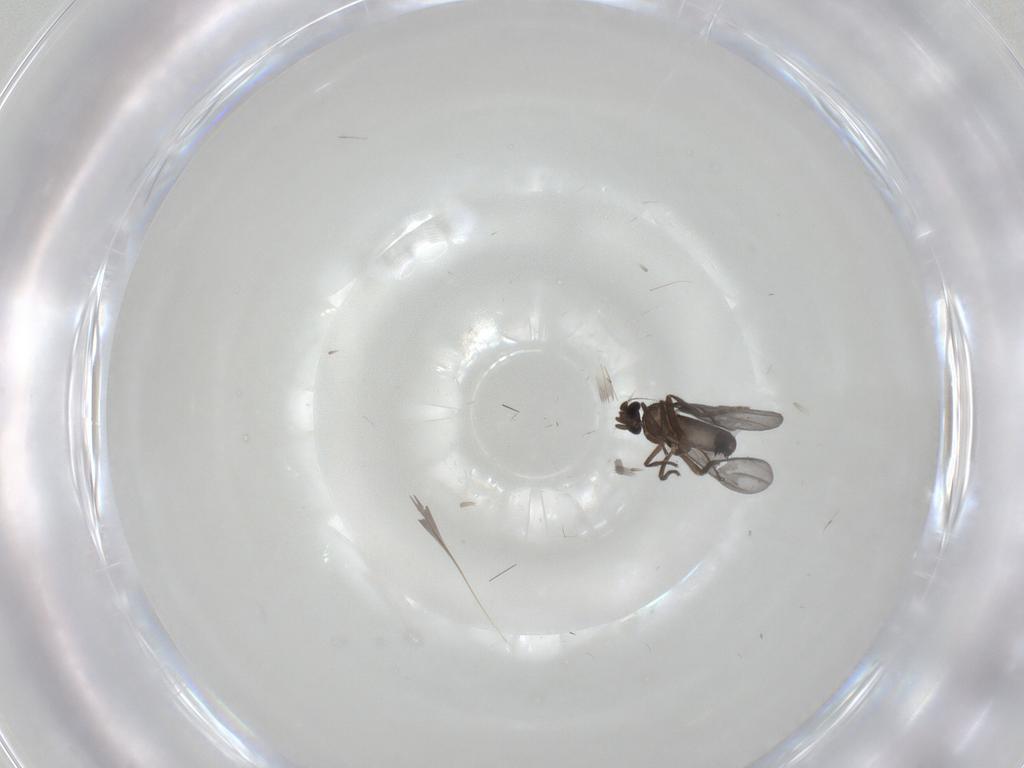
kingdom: Animalia
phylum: Arthropoda
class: Insecta
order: Diptera
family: Phoridae
